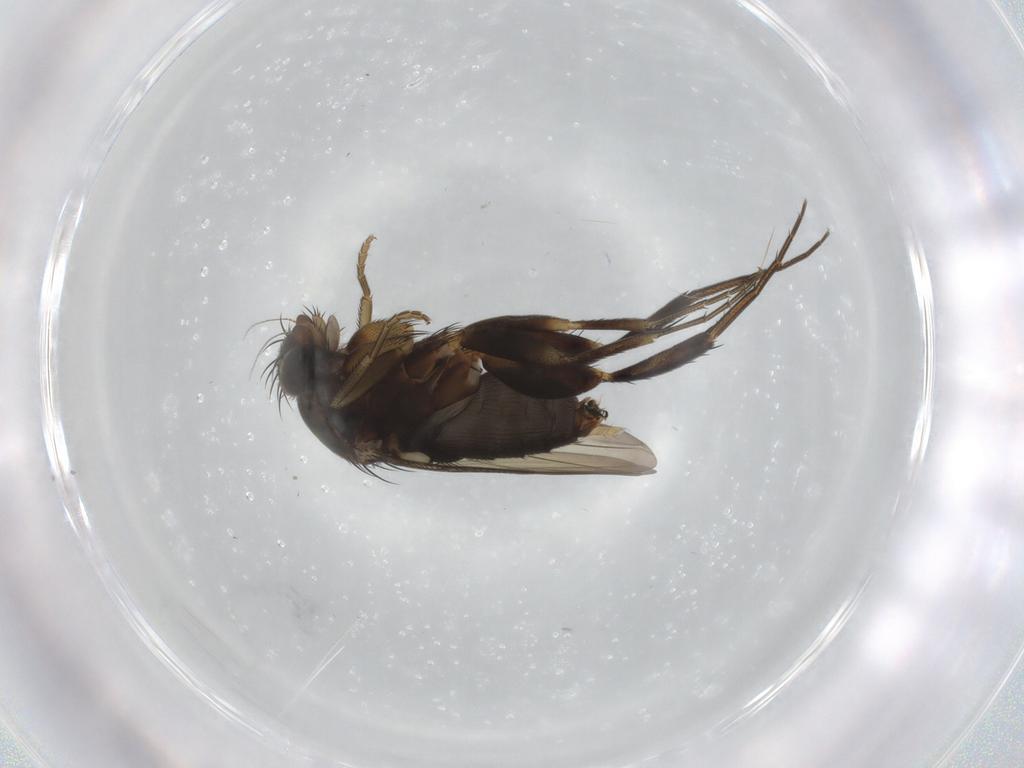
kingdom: Animalia
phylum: Arthropoda
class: Insecta
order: Diptera
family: Phoridae
